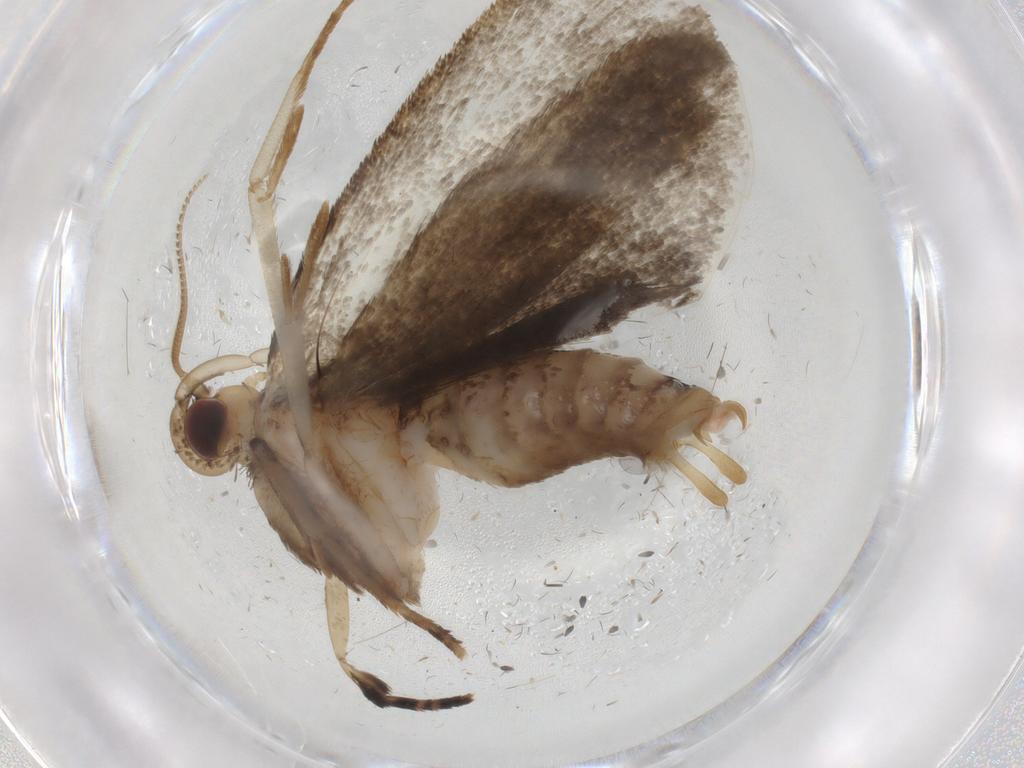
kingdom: Animalia
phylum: Arthropoda
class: Insecta
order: Lepidoptera
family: Tineidae
